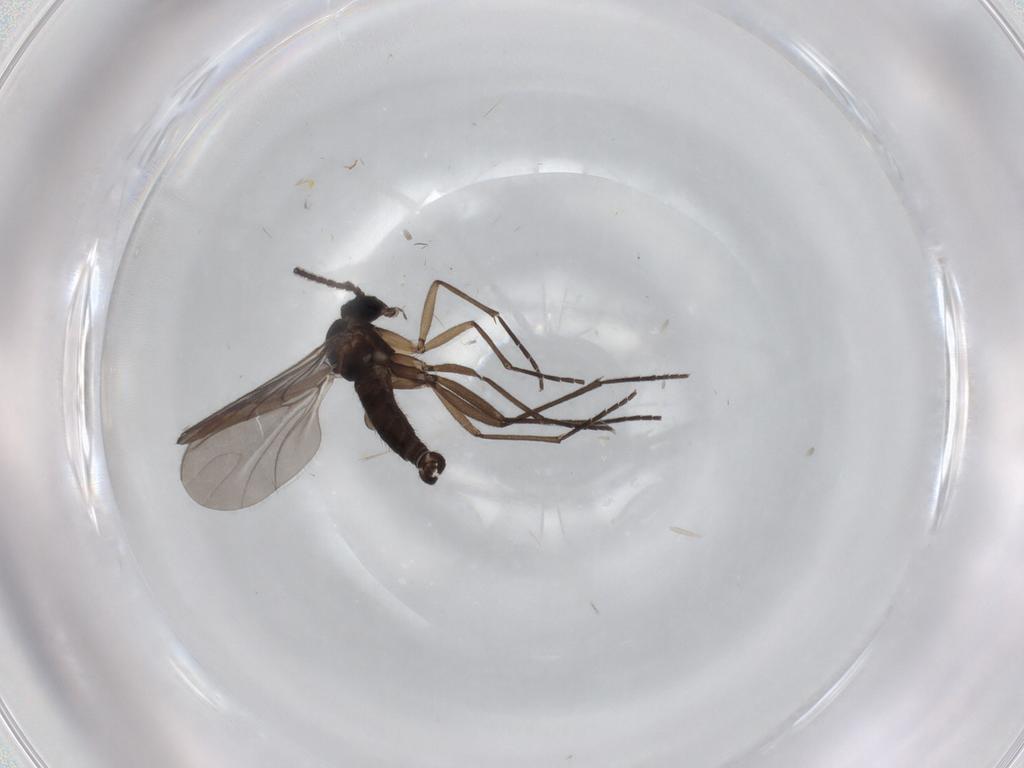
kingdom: Animalia
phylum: Arthropoda
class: Insecta
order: Diptera
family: Sciaridae
